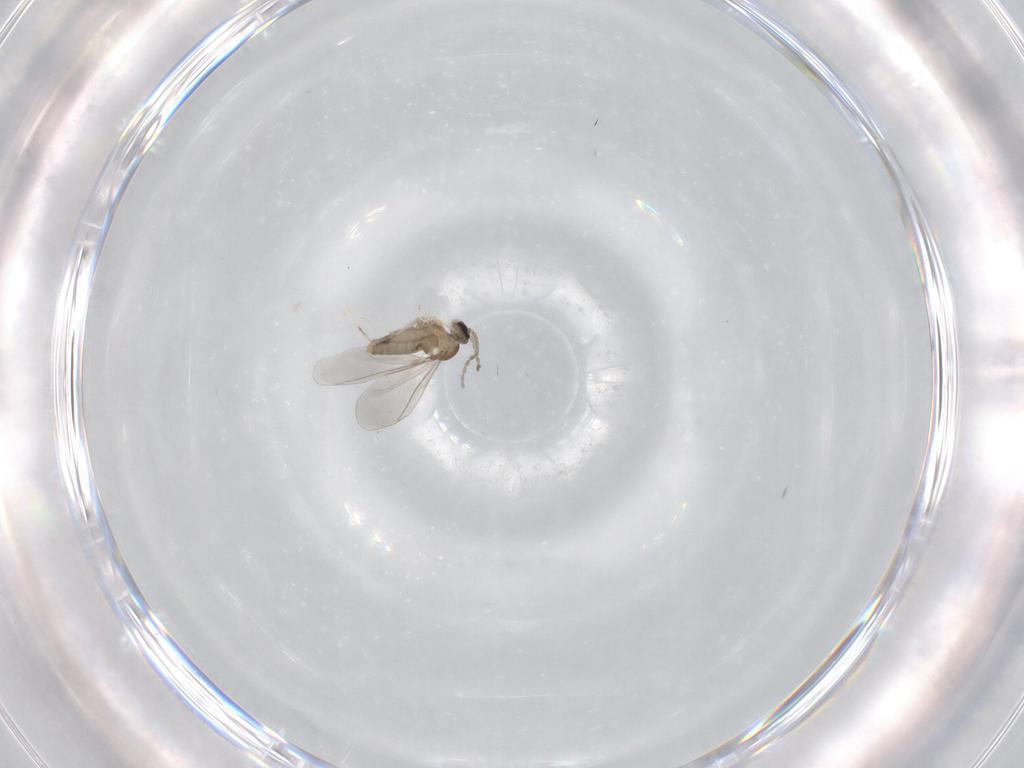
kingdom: Animalia
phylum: Arthropoda
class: Insecta
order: Diptera
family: Cecidomyiidae
